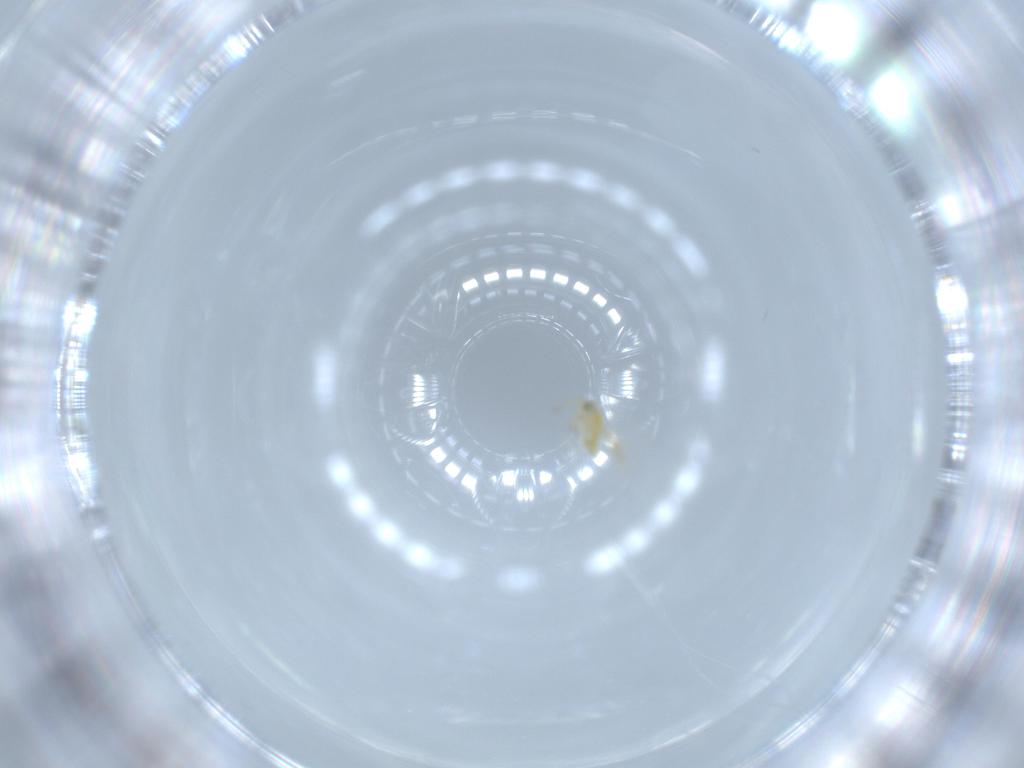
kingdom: Animalia
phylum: Arthropoda
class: Insecta
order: Hymenoptera
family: Aphelinidae
